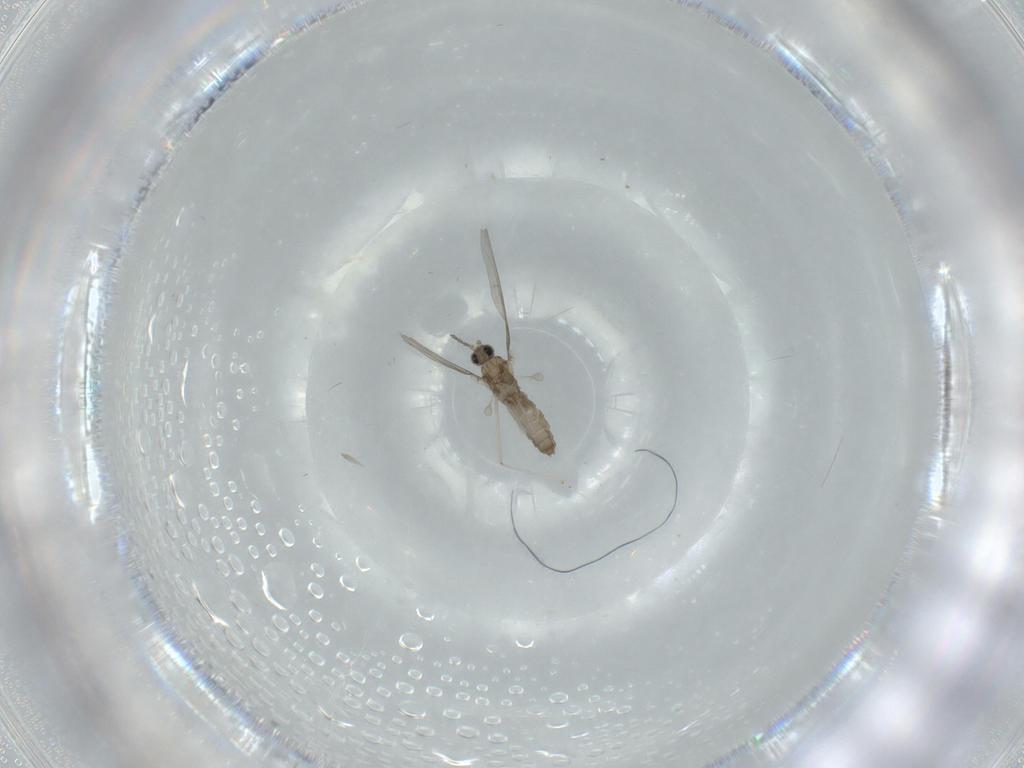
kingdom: Animalia
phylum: Arthropoda
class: Insecta
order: Diptera
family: Cecidomyiidae
